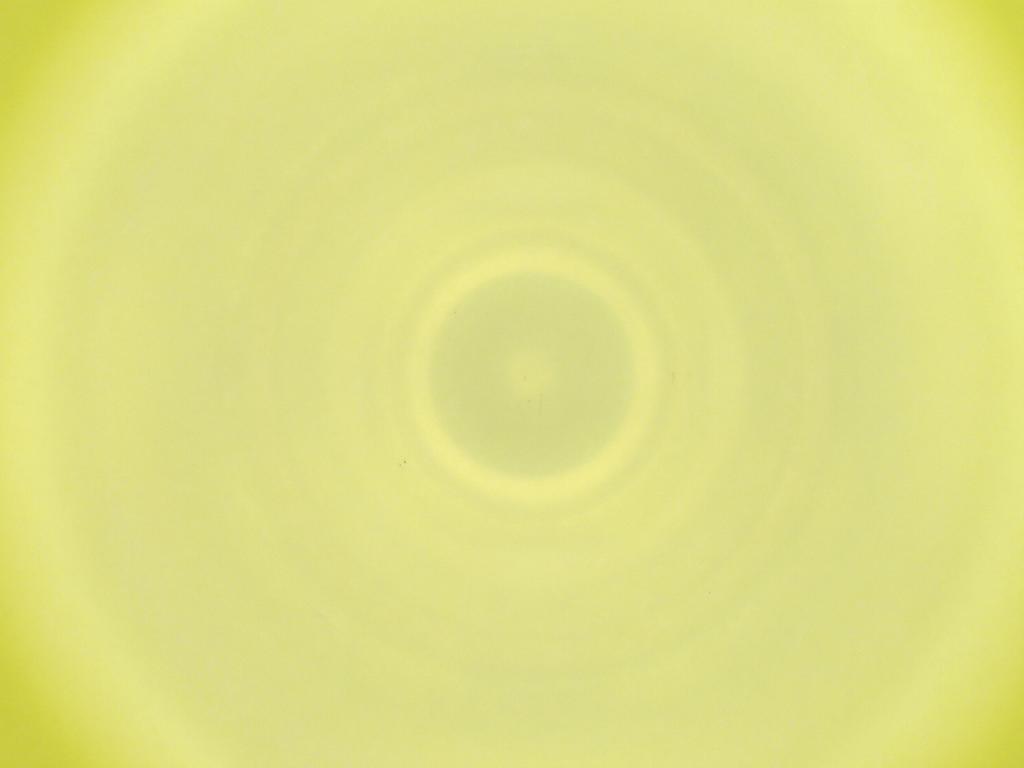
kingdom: Animalia
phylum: Arthropoda
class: Insecta
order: Diptera
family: Cecidomyiidae
